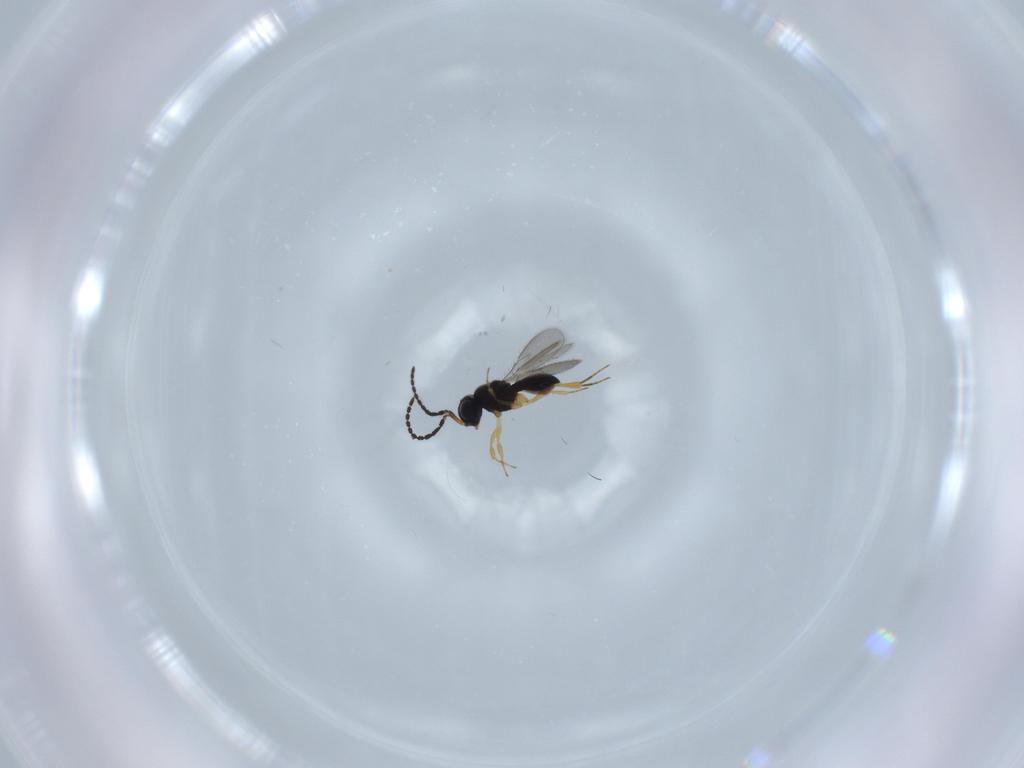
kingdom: Animalia
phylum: Arthropoda
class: Insecta
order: Hymenoptera
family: Scelionidae
